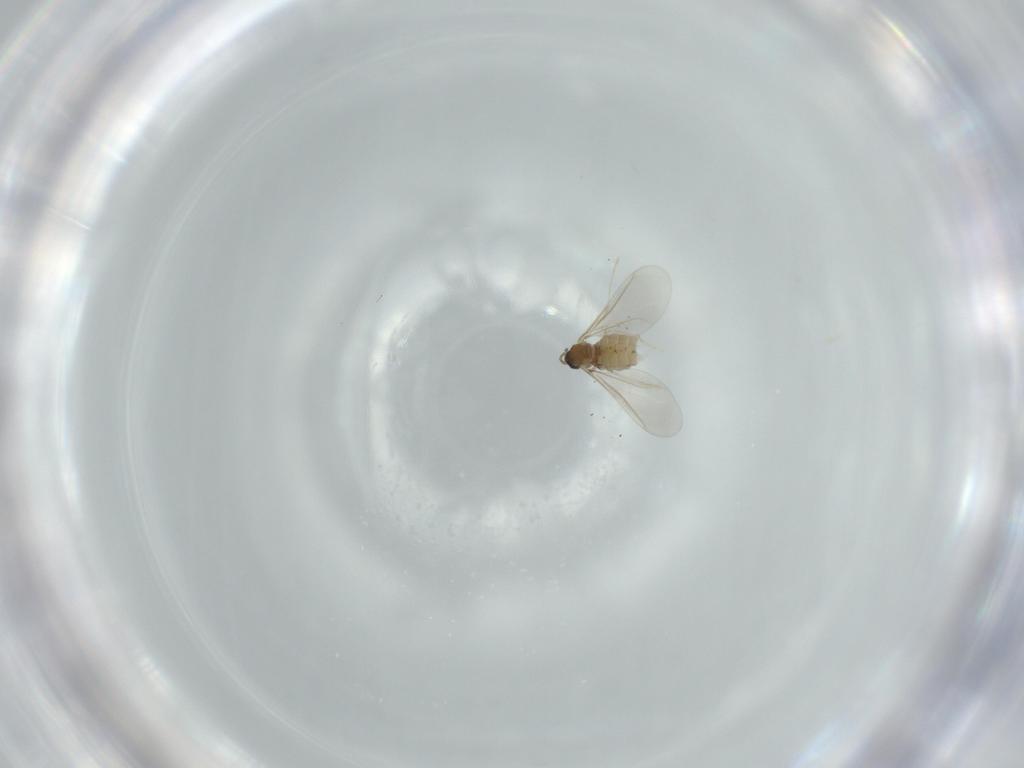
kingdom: Animalia
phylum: Arthropoda
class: Insecta
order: Diptera
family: Cecidomyiidae
